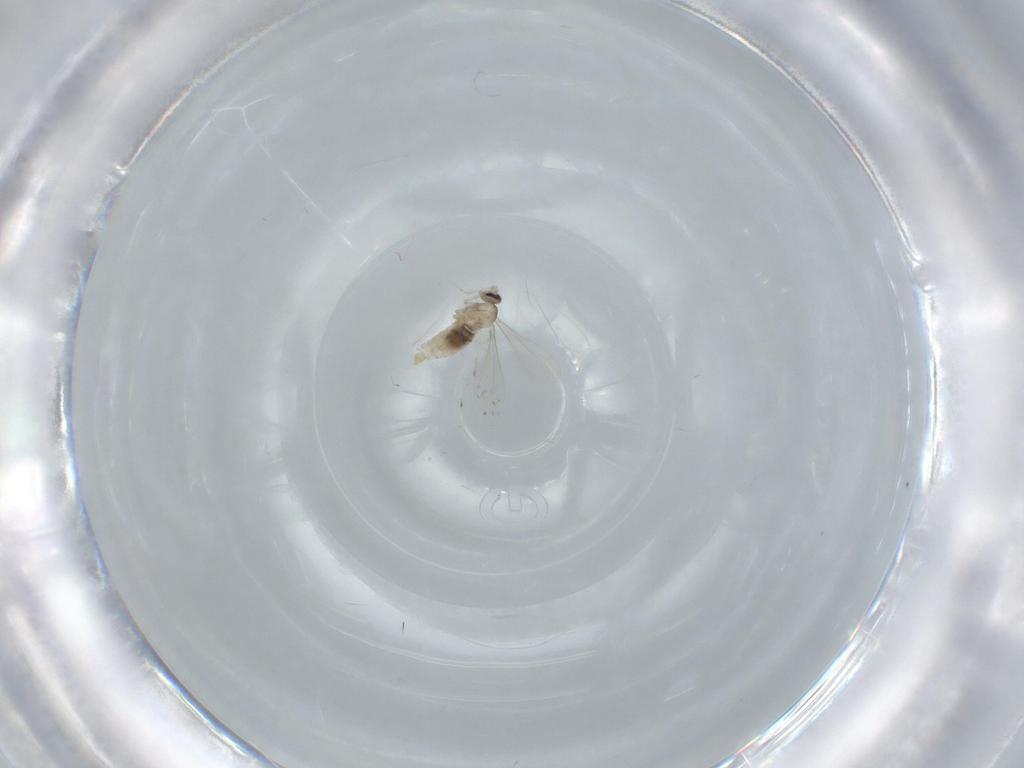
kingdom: Animalia
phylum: Arthropoda
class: Insecta
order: Diptera
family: Cecidomyiidae
